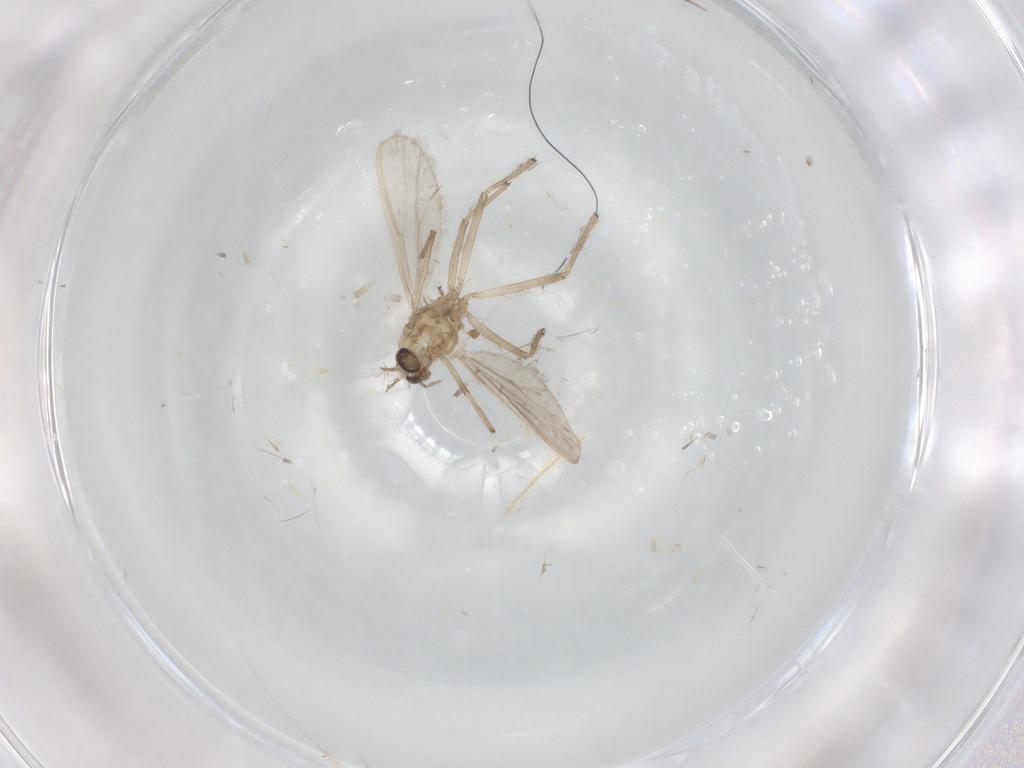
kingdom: Animalia
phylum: Arthropoda
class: Insecta
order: Diptera
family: Chironomidae
